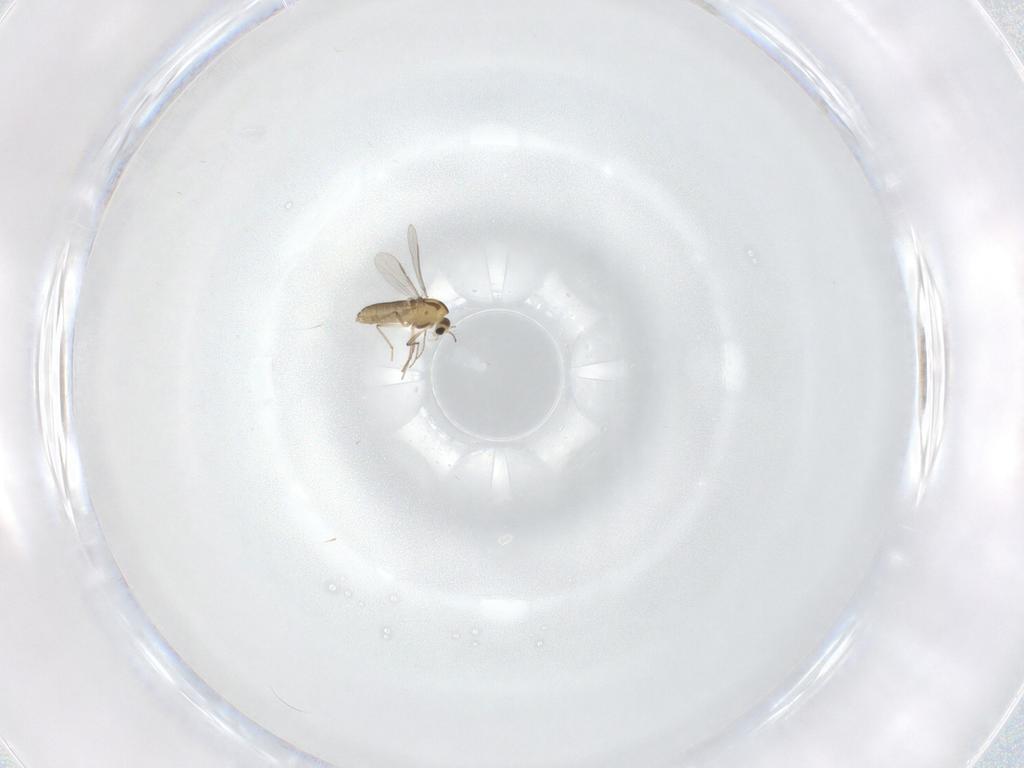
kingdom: Animalia
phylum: Arthropoda
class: Insecta
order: Diptera
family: Chironomidae
